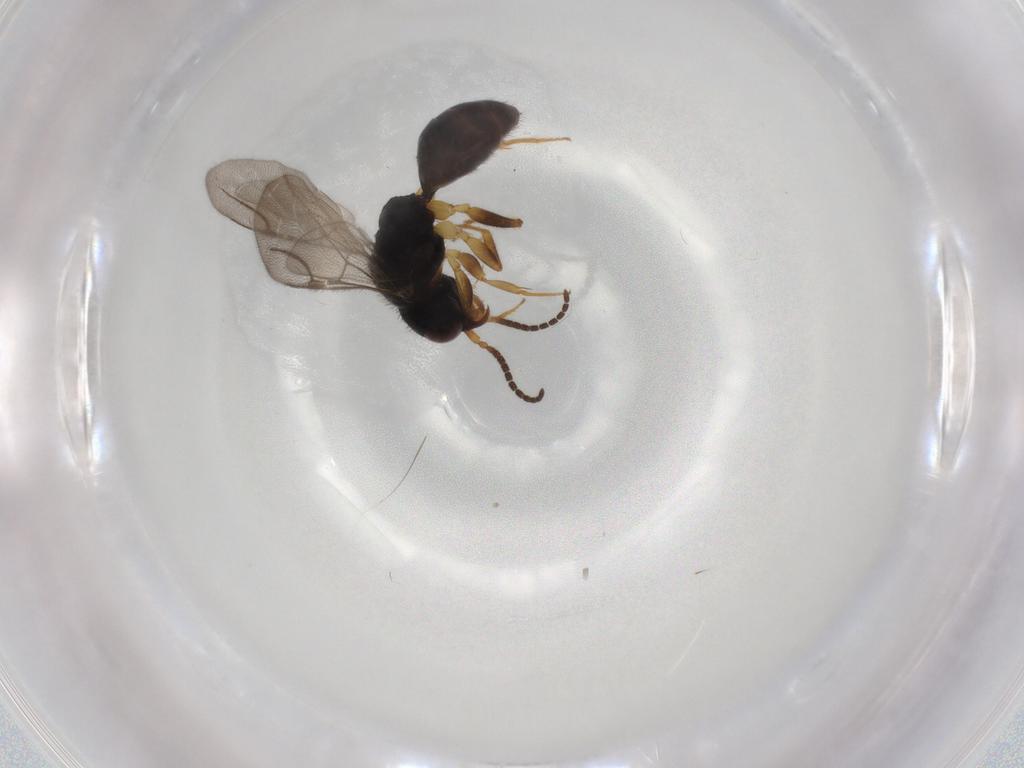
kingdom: Animalia
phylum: Arthropoda
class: Insecta
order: Hymenoptera
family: Bethylidae
